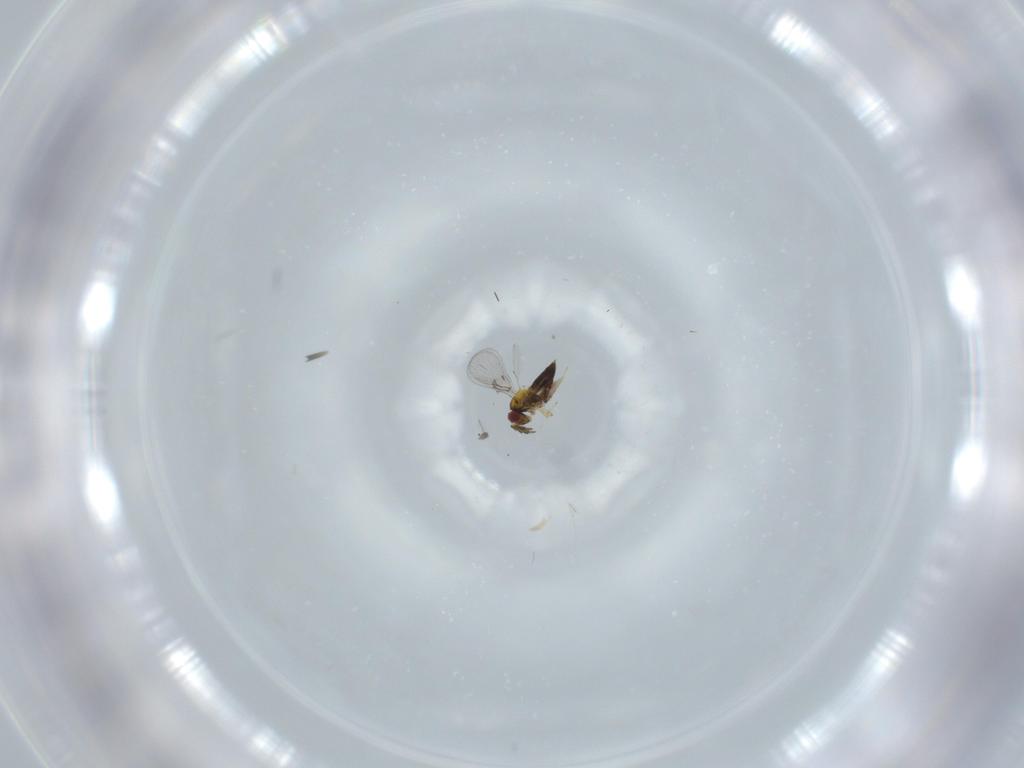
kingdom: Animalia
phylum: Arthropoda
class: Insecta
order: Hymenoptera
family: Trichogrammatidae
